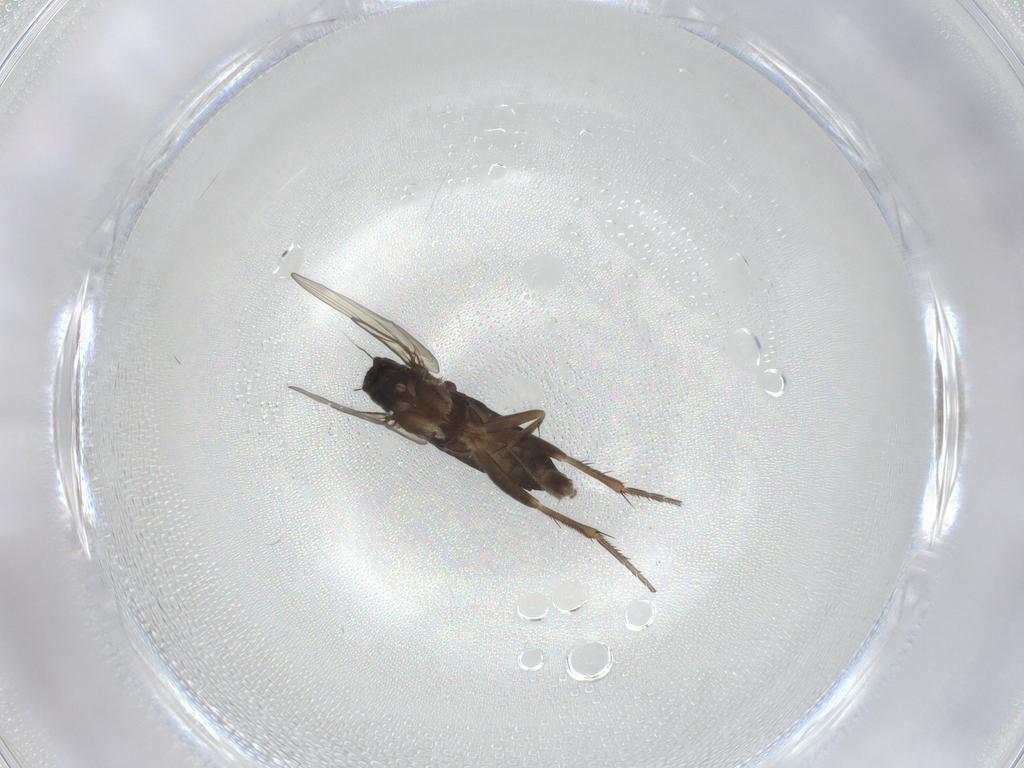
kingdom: Animalia
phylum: Arthropoda
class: Insecta
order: Diptera
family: Phoridae
